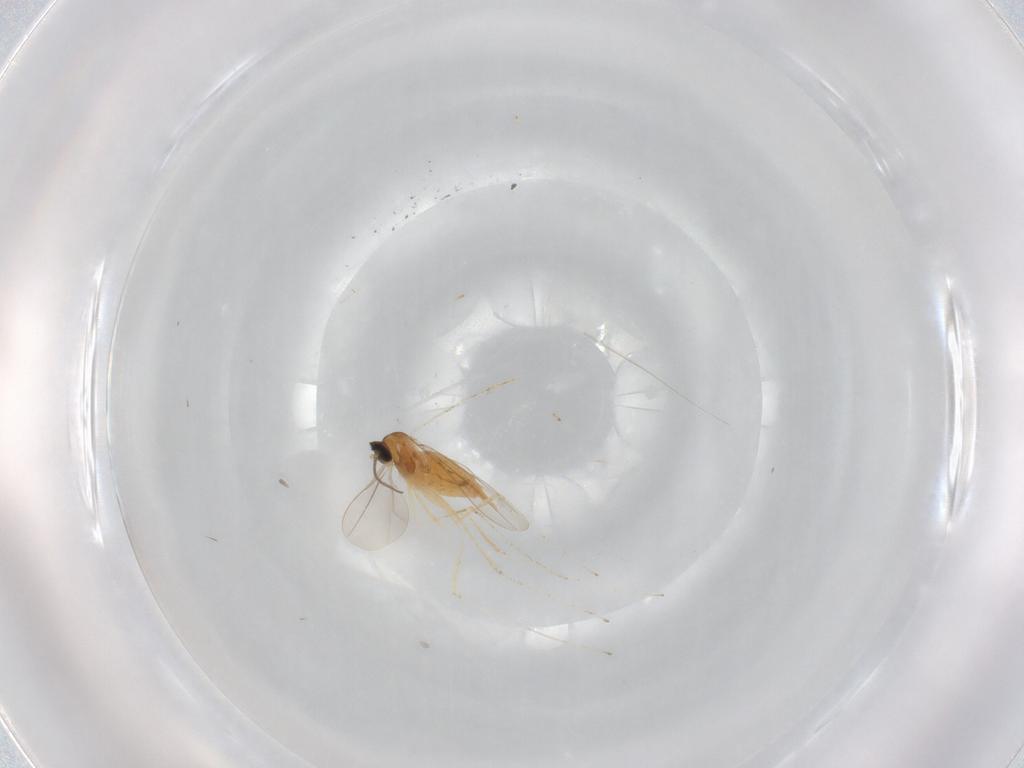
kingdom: Animalia
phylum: Arthropoda
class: Insecta
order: Diptera
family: Cecidomyiidae
